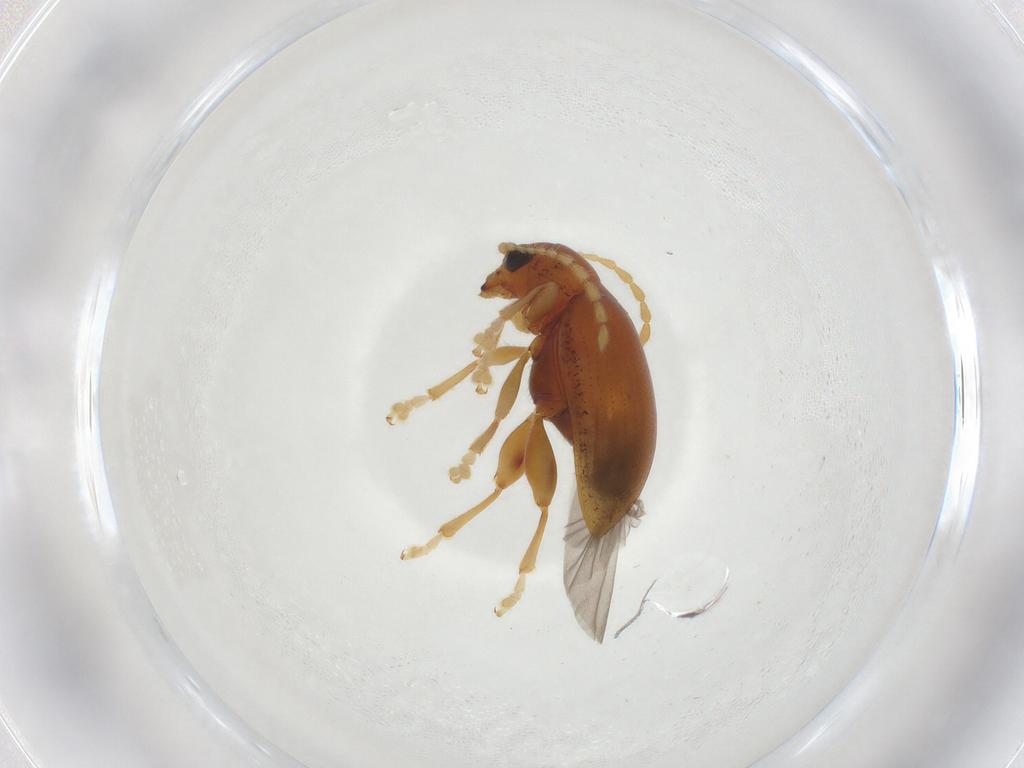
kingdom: Animalia
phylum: Arthropoda
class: Insecta
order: Coleoptera
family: Chrysomelidae
